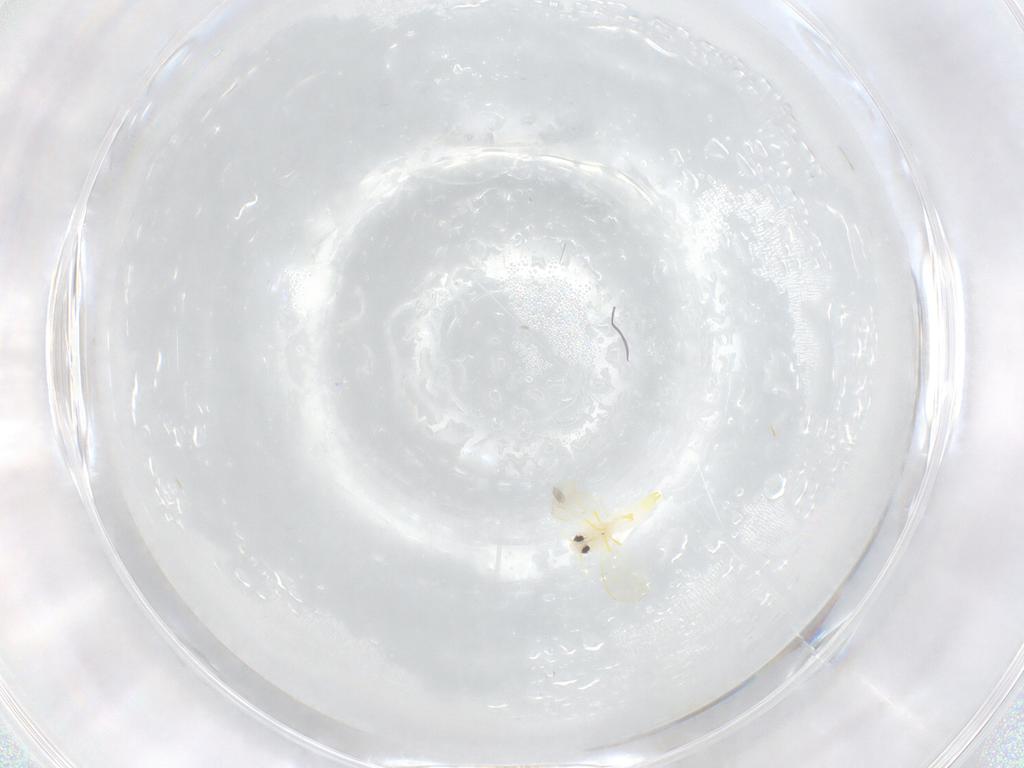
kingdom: Animalia
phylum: Arthropoda
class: Insecta
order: Hemiptera
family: Aleyrodidae
